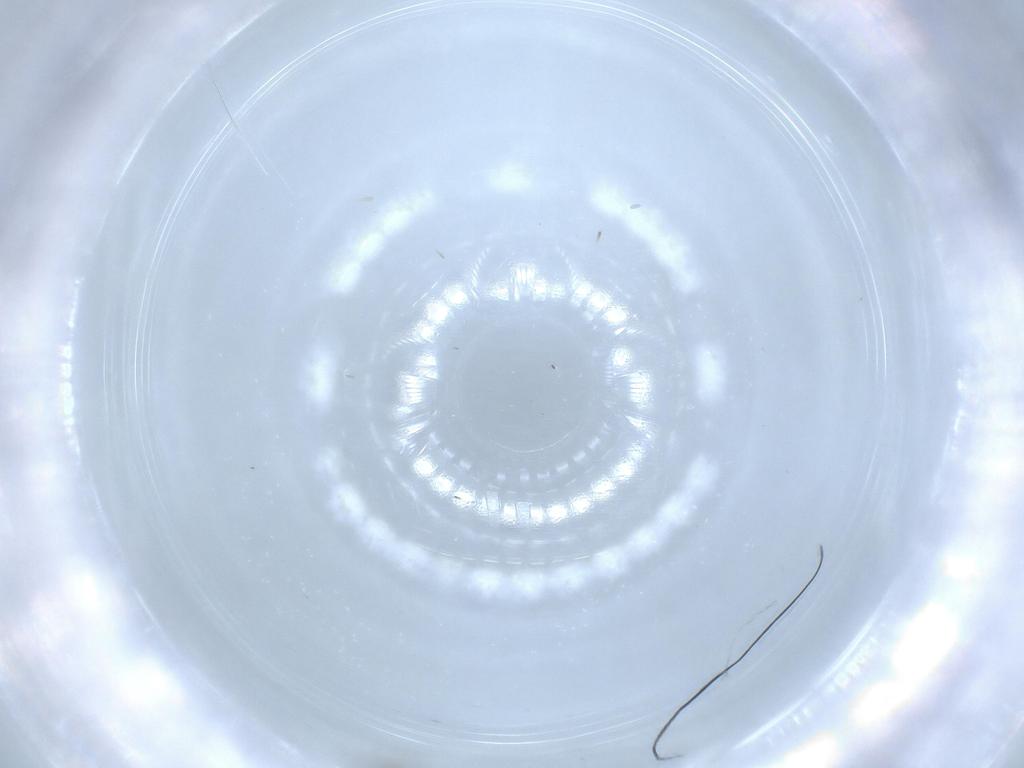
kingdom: Animalia
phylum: Arthropoda
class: Insecta
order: Diptera
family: Cecidomyiidae
